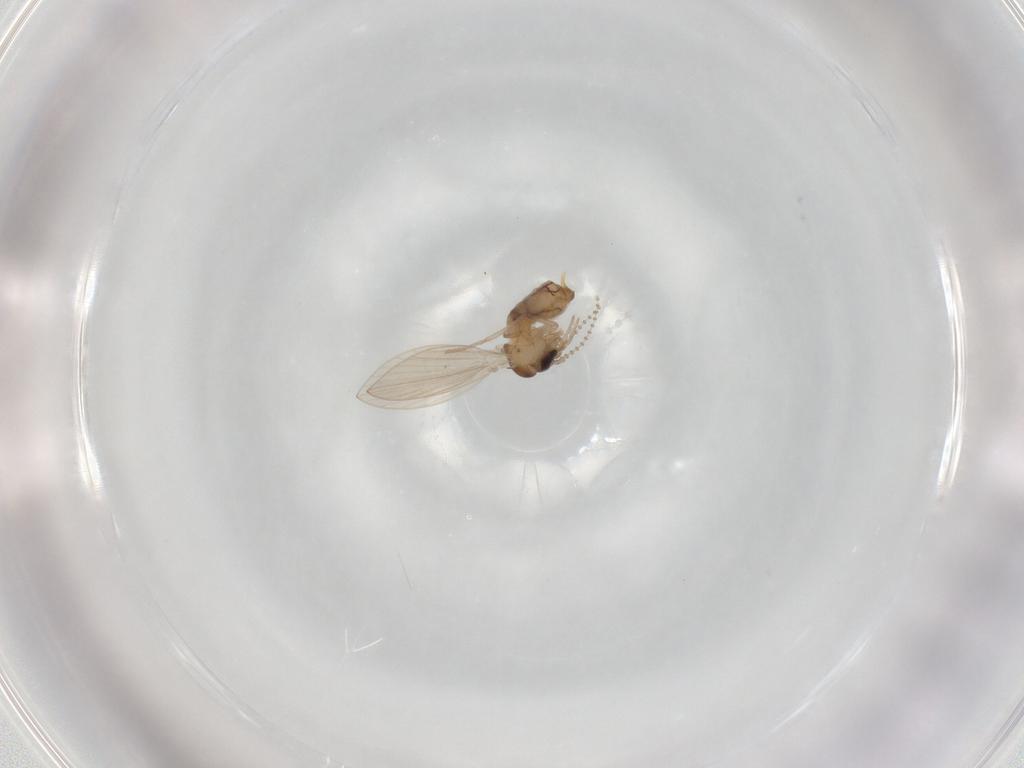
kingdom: Animalia
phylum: Arthropoda
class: Insecta
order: Diptera
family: Psychodidae
